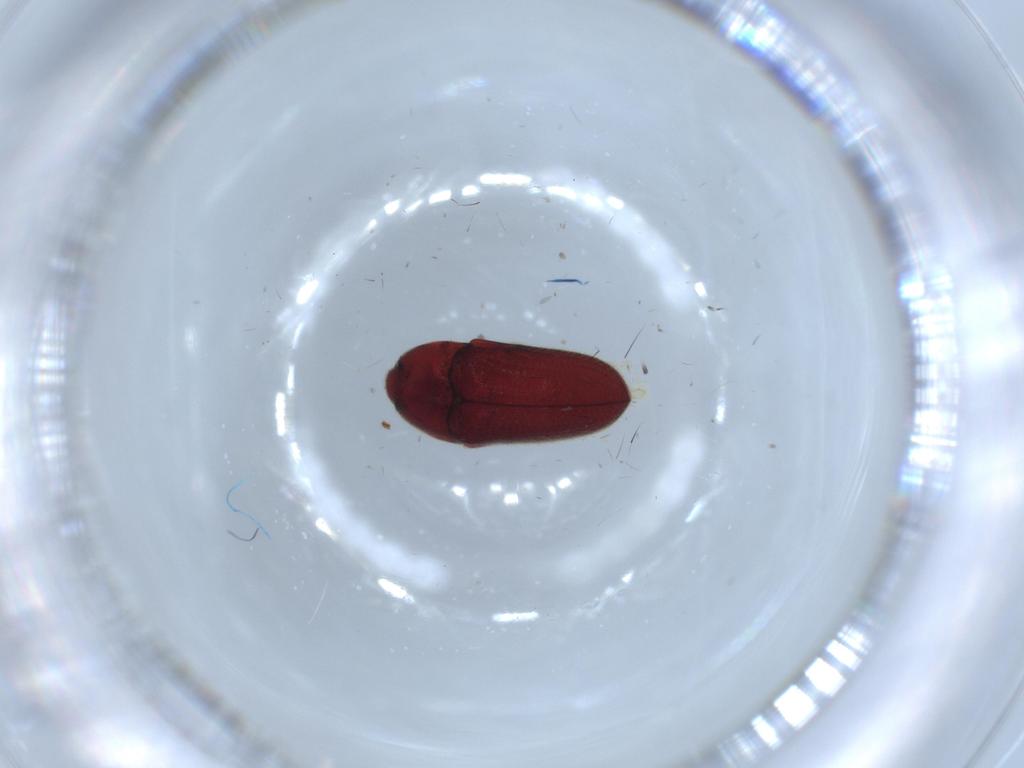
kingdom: Animalia
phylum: Arthropoda
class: Insecta
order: Coleoptera
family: Throscidae
